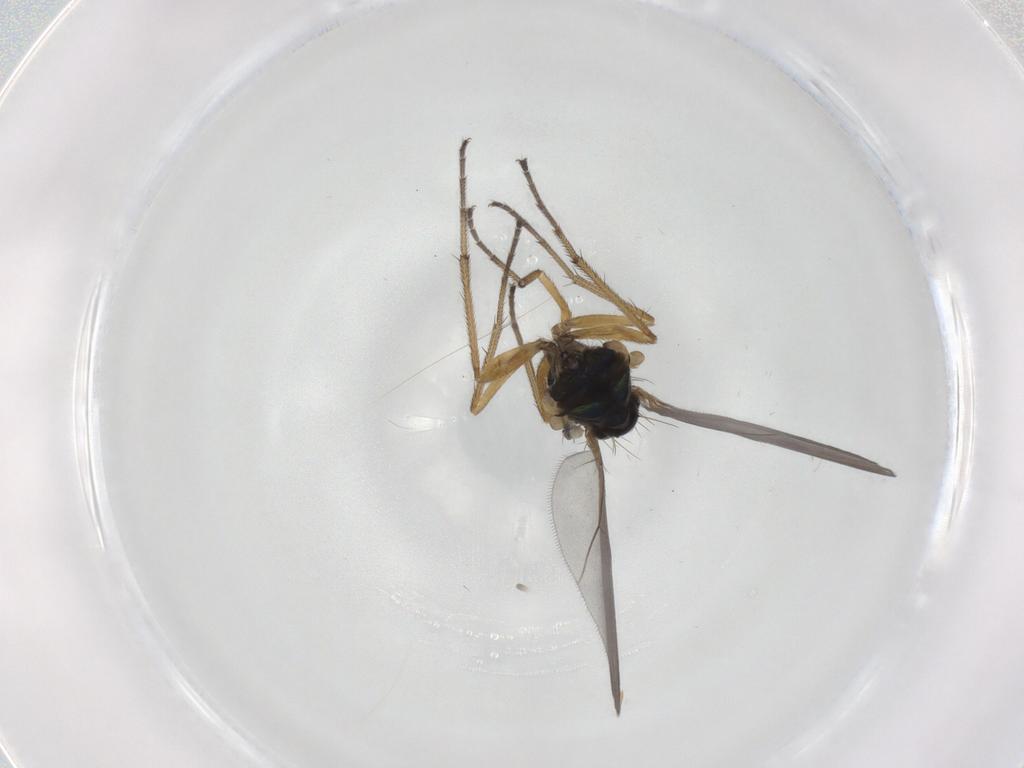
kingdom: Animalia
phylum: Arthropoda
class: Insecta
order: Diptera
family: Dolichopodidae
